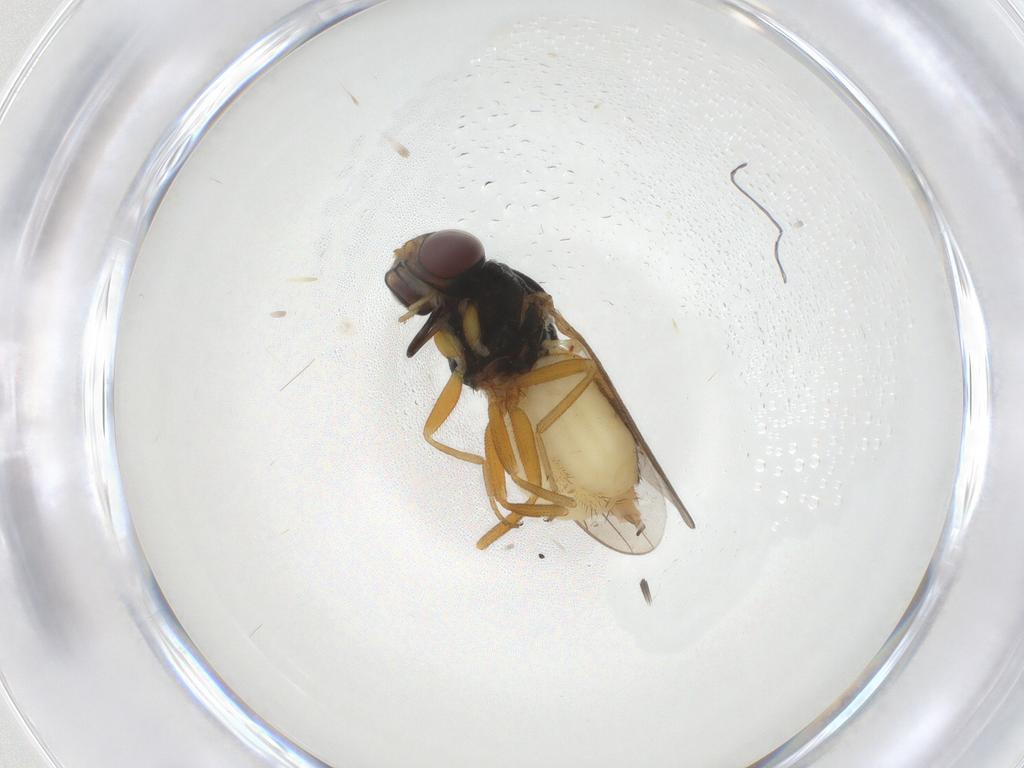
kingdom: Animalia
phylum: Arthropoda
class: Insecta
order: Diptera
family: Chloropidae
